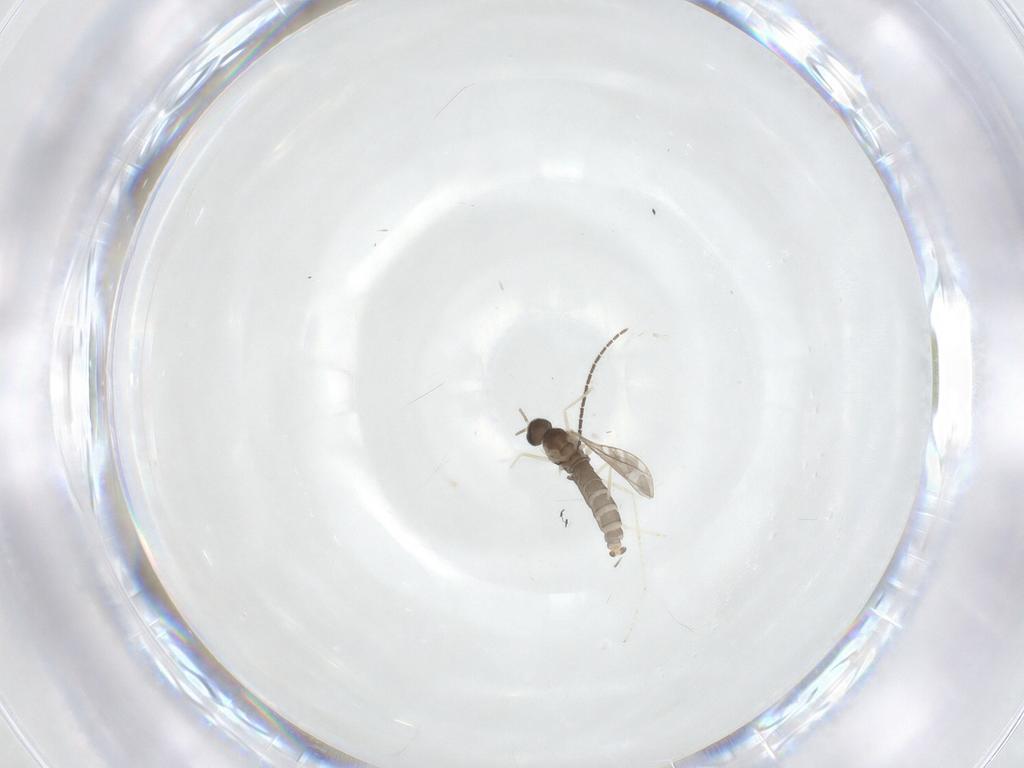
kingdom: Animalia
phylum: Arthropoda
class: Insecta
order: Diptera
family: Sciaridae
